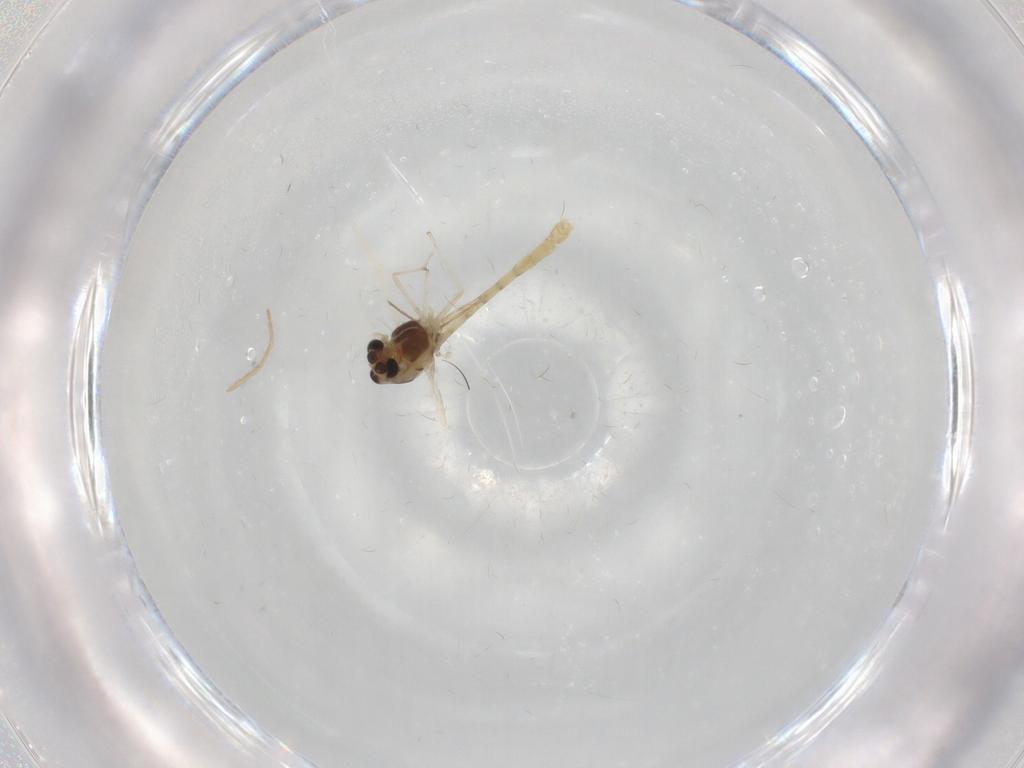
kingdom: Animalia
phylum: Arthropoda
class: Insecta
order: Diptera
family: Chironomidae
